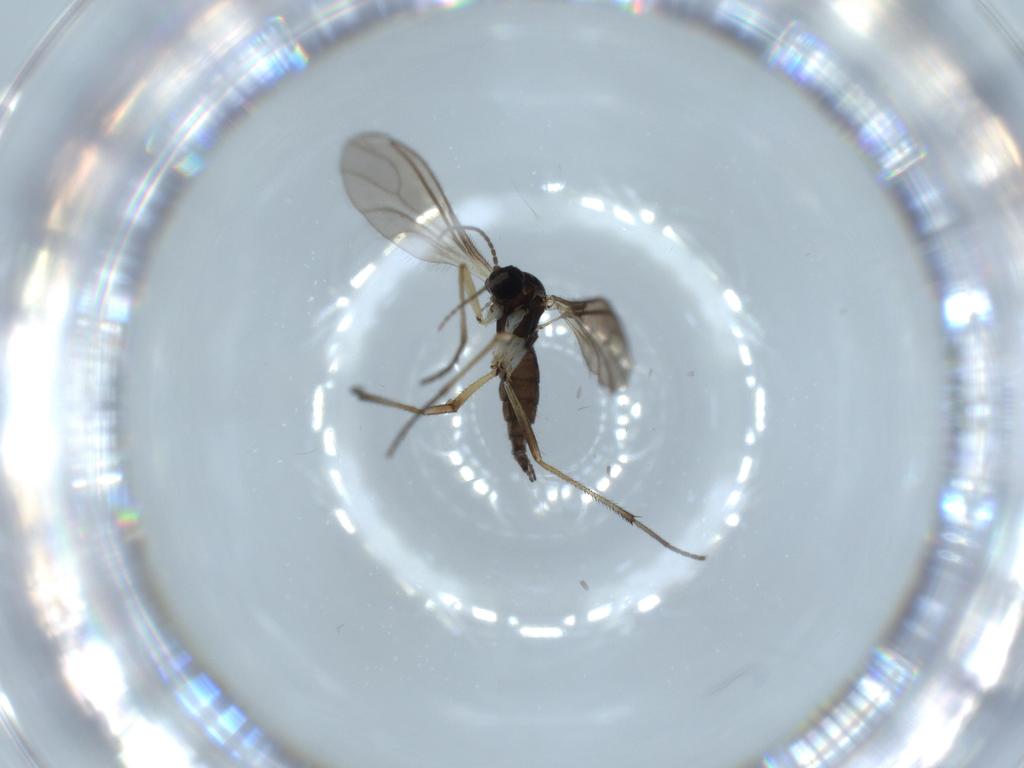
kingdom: Animalia
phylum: Arthropoda
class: Insecta
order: Diptera
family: Sciaridae
